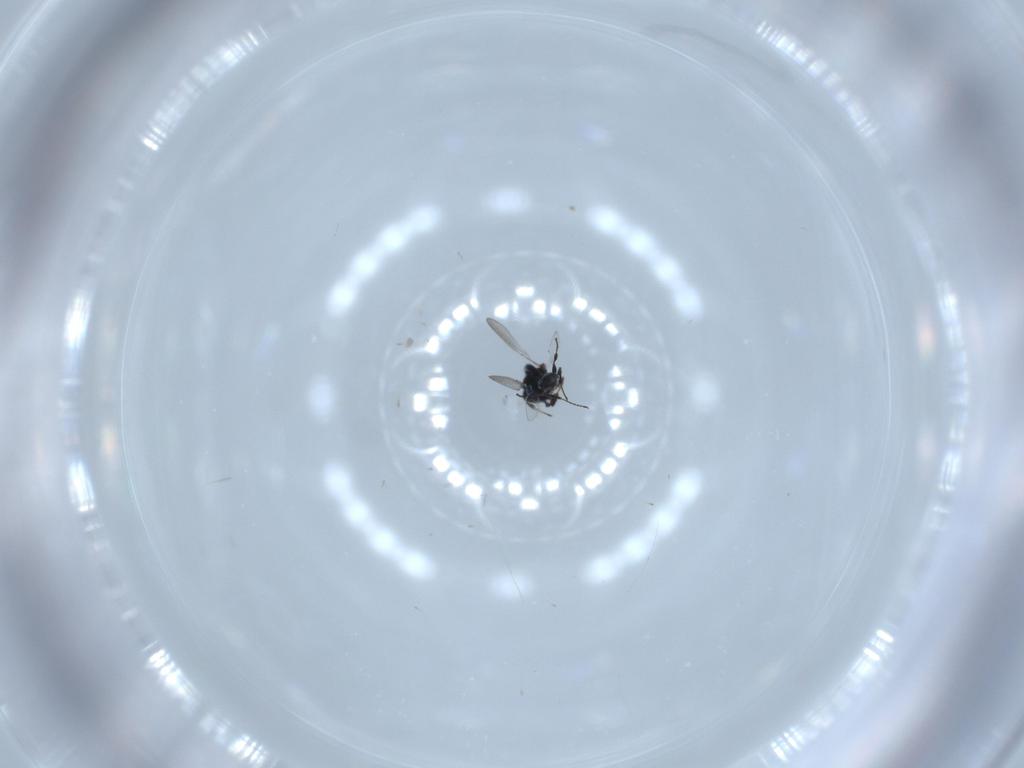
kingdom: Animalia
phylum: Arthropoda
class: Insecta
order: Hymenoptera
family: Platygastridae
